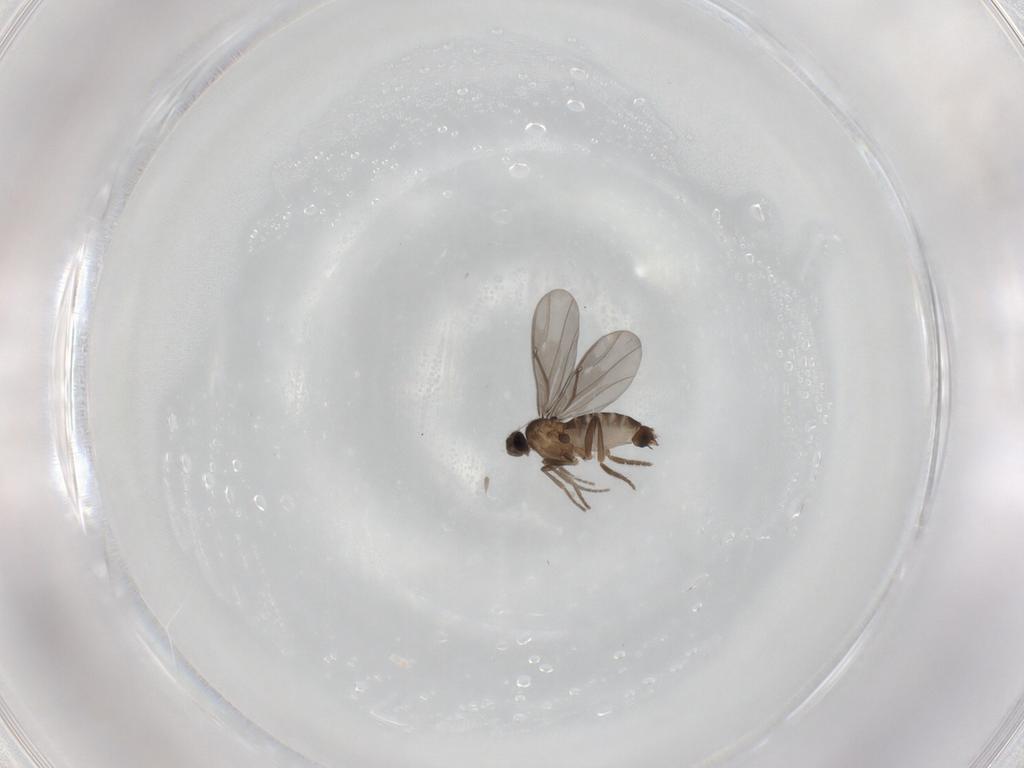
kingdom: Animalia
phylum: Arthropoda
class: Insecta
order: Diptera
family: Phoridae
